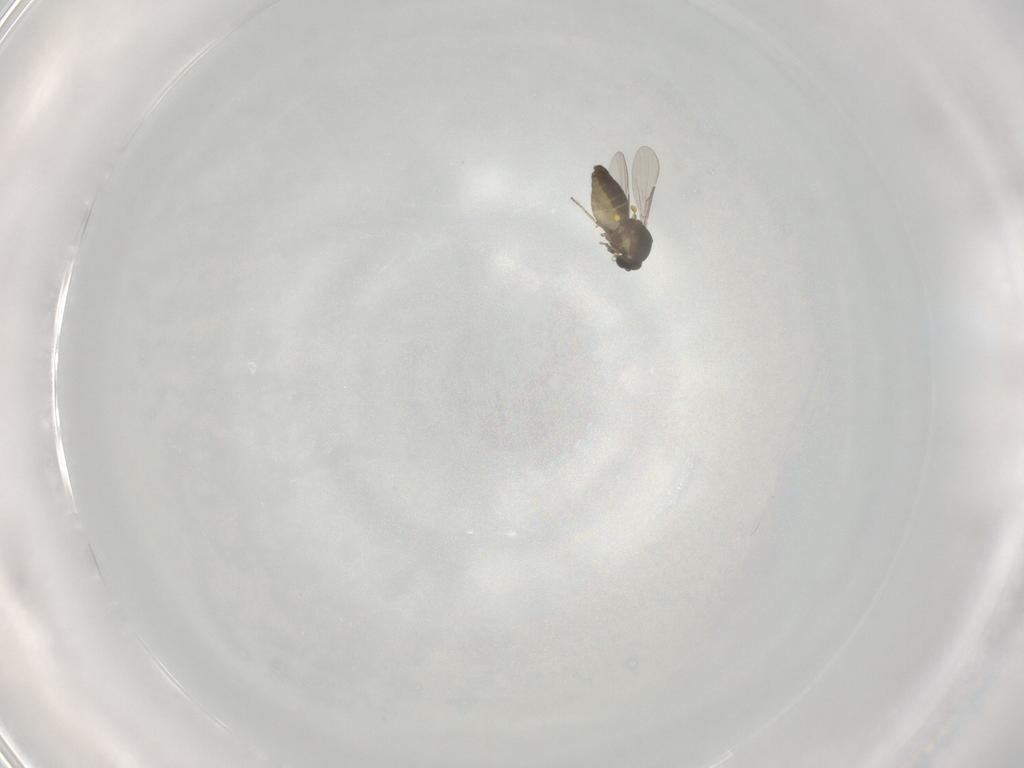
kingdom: Animalia
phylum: Arthropoda
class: Insecta
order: Diptera
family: Ceratopogonidae
